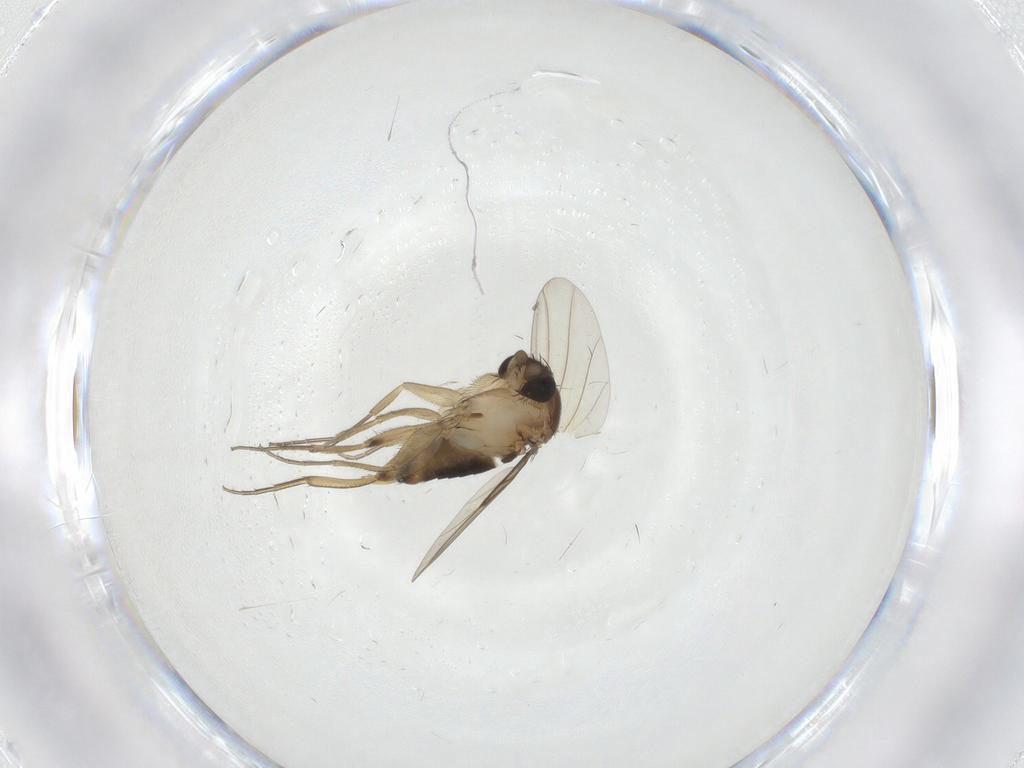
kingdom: Animalia
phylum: Arthropoda
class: Insecta
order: Diptera
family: Phoridae
